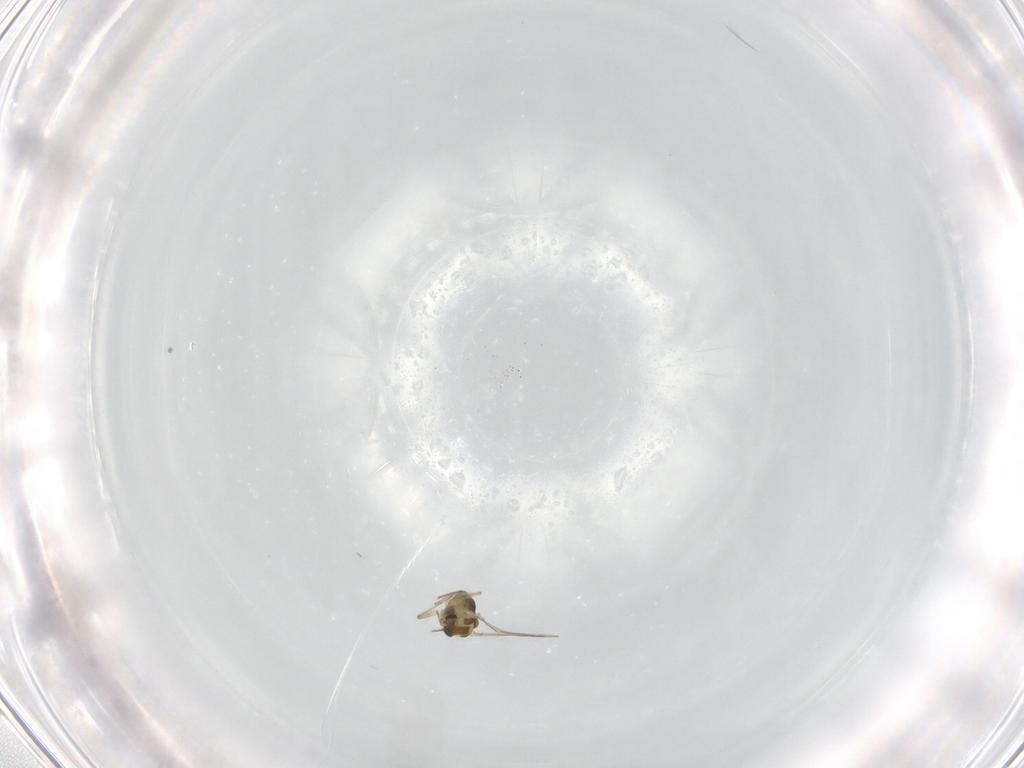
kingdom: Animalia
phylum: Arthropoda
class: Insecta
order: Diptera
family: Chironomidae
